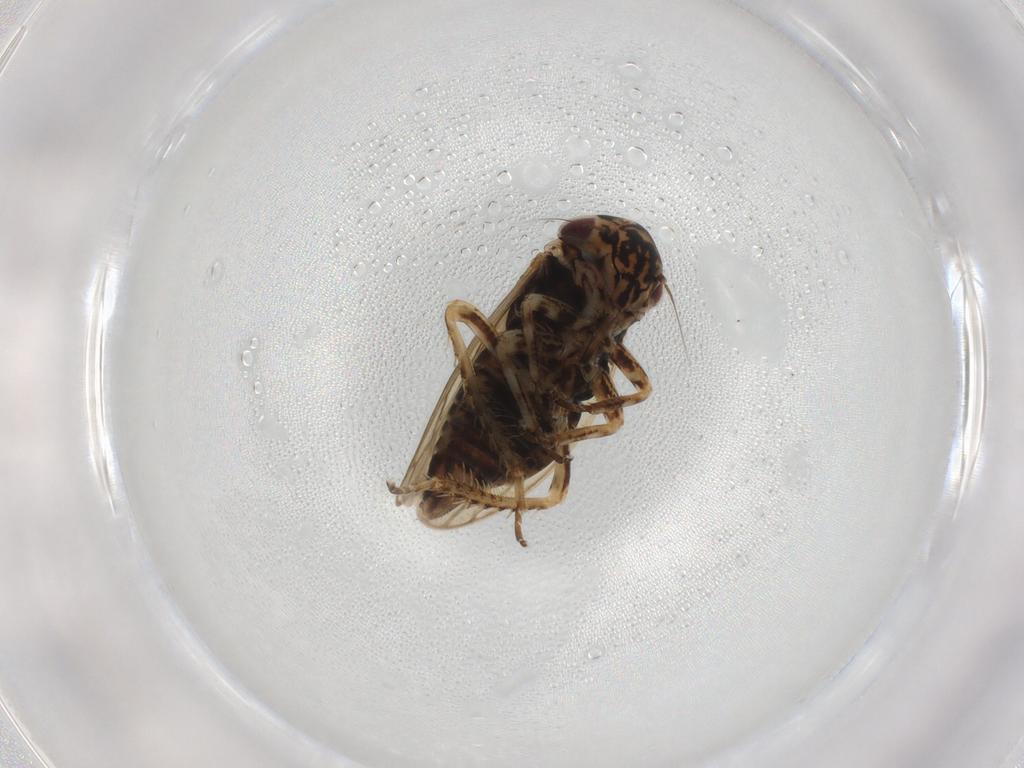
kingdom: Animalia
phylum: Arthropoda
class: Insecta
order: Hemiptera
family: Cicadellidae
